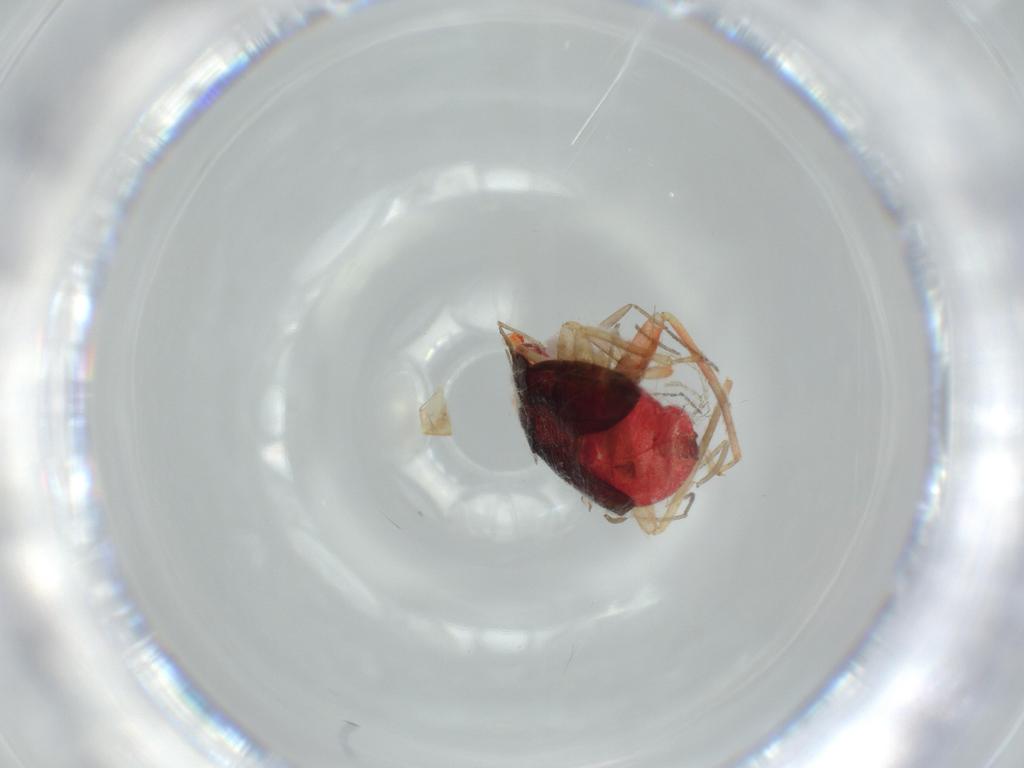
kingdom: Animalia
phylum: Arthropoda
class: Insecta
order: Hemiptera
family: Miridae
